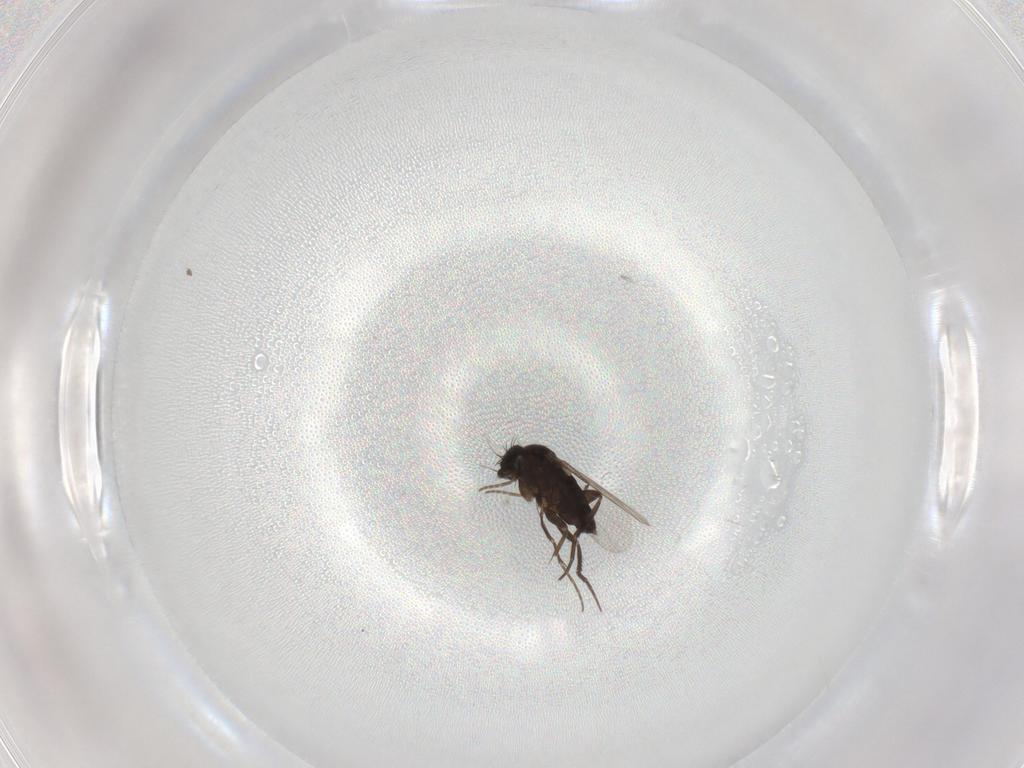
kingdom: Animalia
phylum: Arthropoda
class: Insecta
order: Diptera
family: Phoridae
